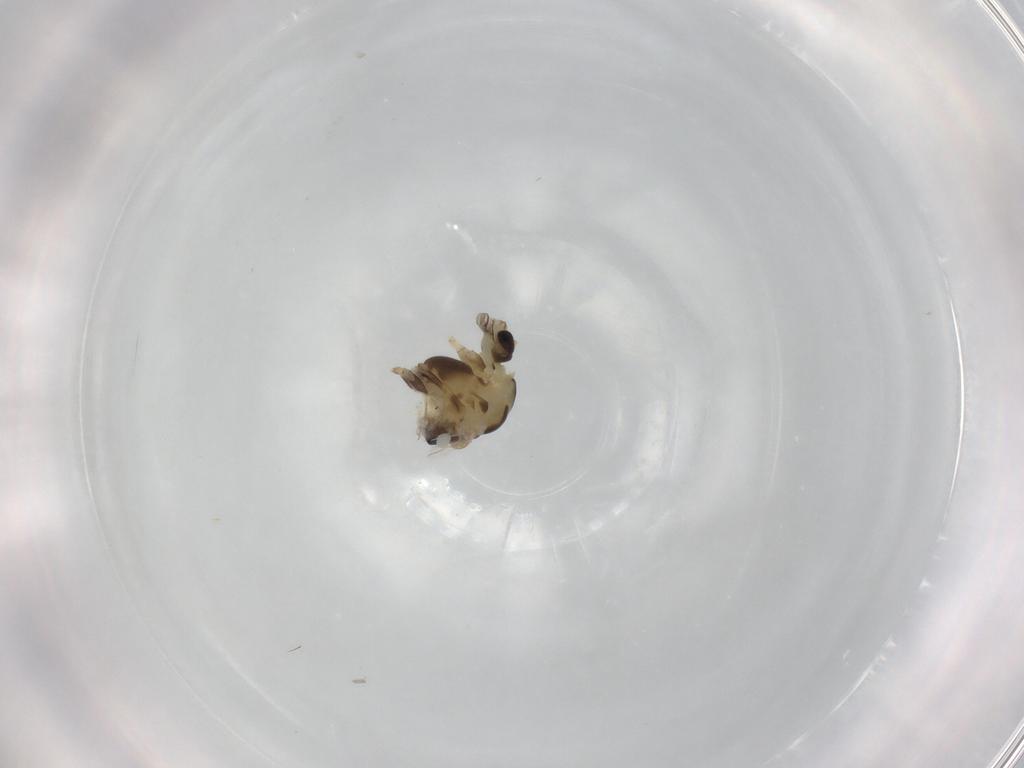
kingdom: Animalia
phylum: Arthropoda
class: Insecta
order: Diptera
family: Chironomidae
